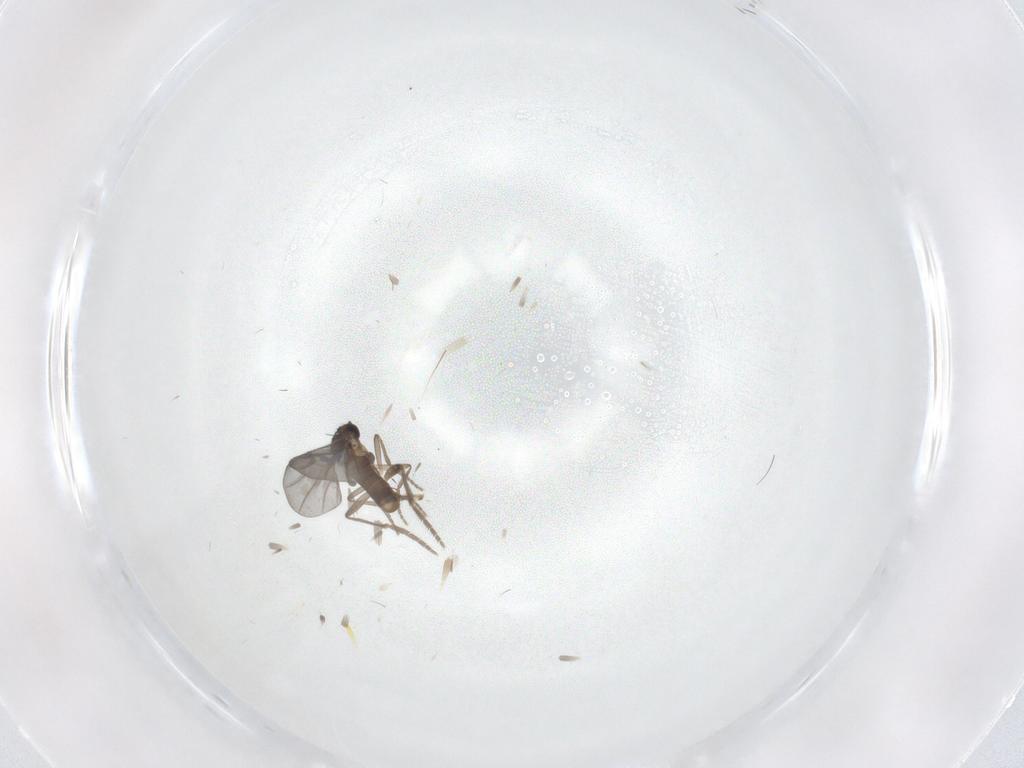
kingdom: Animalia
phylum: Arthropoda
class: Insecta
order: Diptera
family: Phoridae
